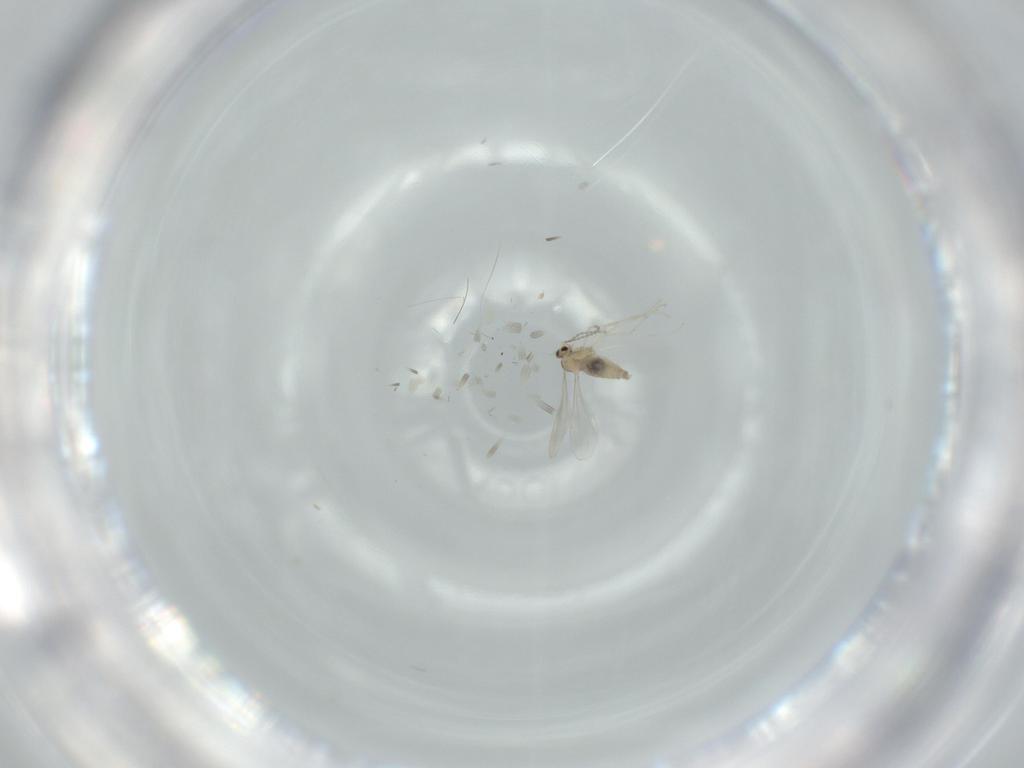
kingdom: Animalia
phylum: Arthropoda
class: Insecta
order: Diptera
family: Cecidomyiidae
